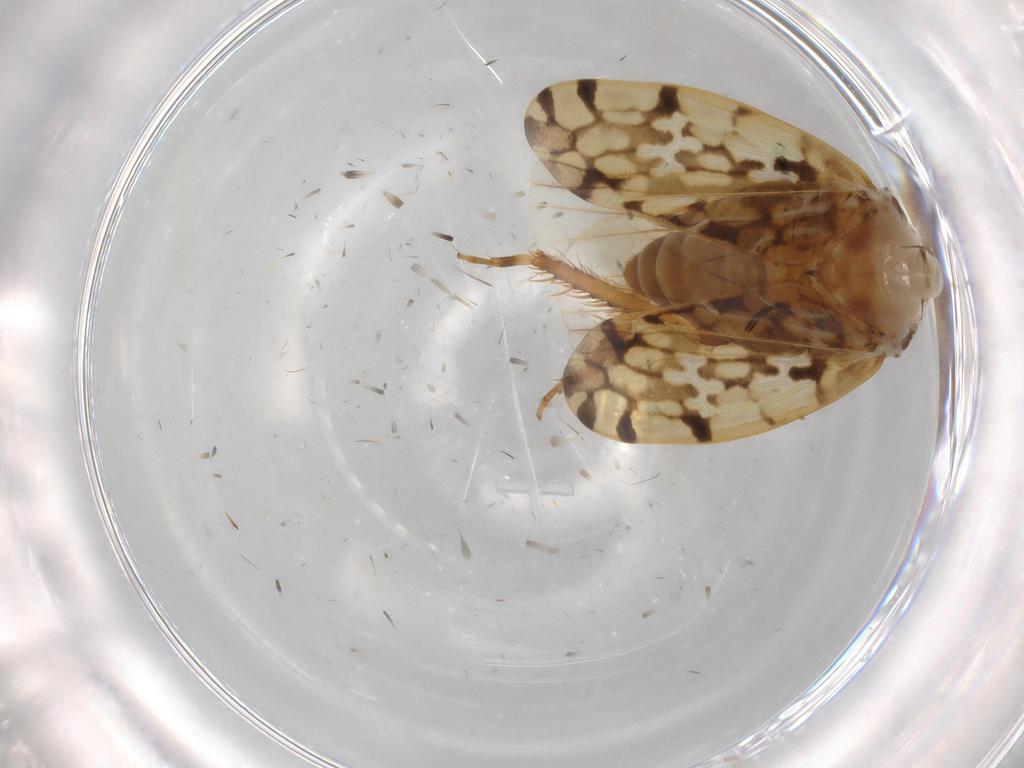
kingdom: Animalia
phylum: Arthropoda
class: Insecta
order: Hemiptera
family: Cicadellidae
